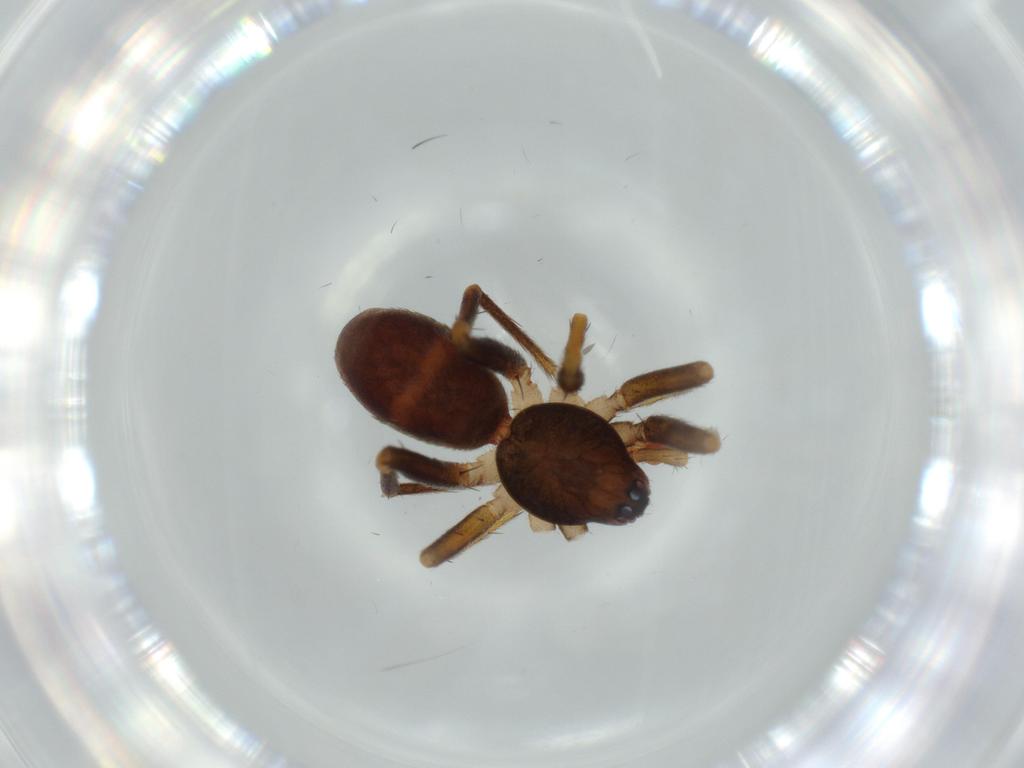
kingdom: Animalia
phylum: Arthropoda
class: Arachnida
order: Araneae
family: Corinnidae
